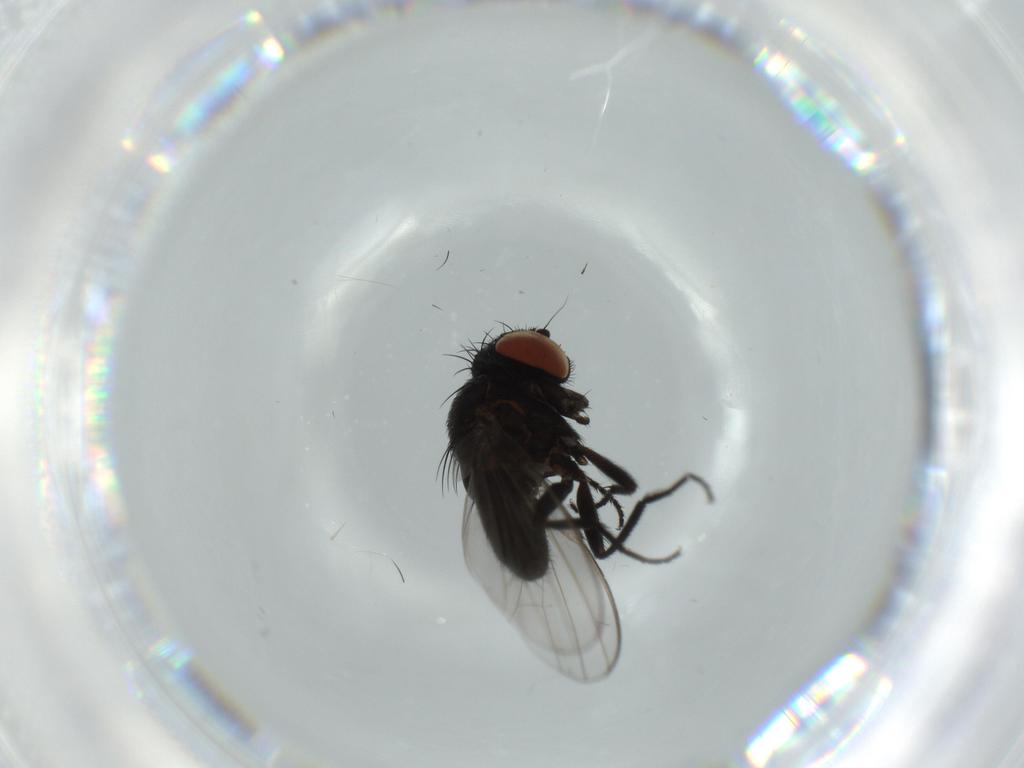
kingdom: Animalia
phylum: Arthropoda
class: Insecta
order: Diptera
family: Milichiidae
